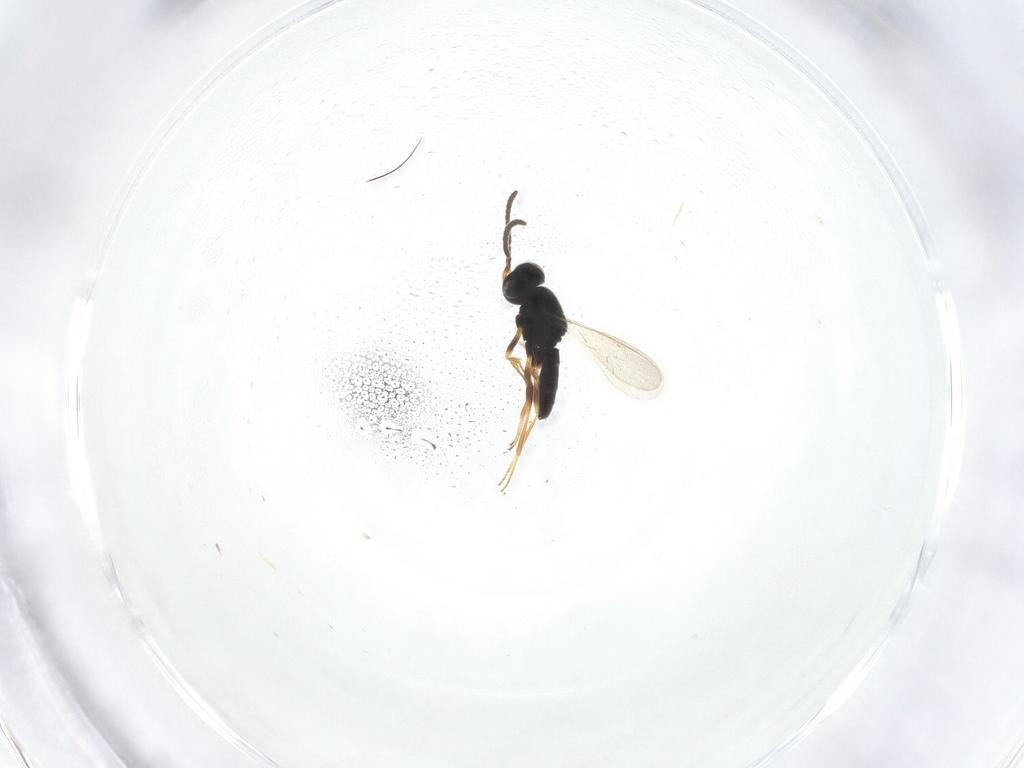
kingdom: Animalia
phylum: Arthropoda
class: Insecta
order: Hymenoptera
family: Scelionidae
